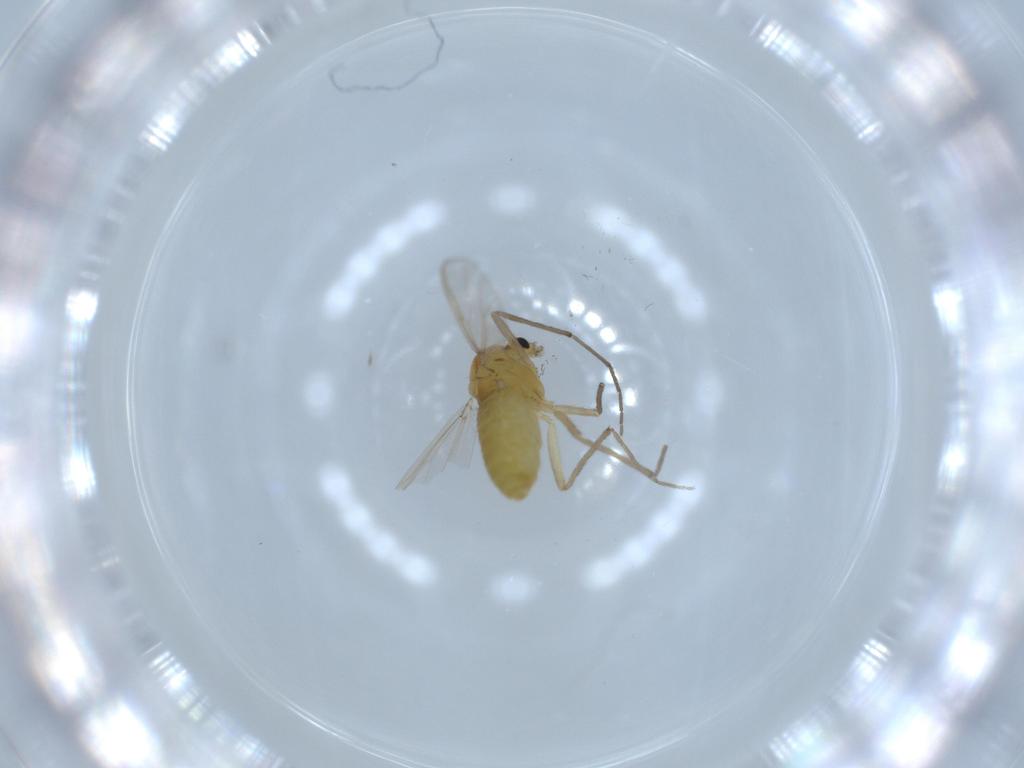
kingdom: Animalia
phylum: Arthropoda
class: Insecta
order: Diptera
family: Chironomidae
